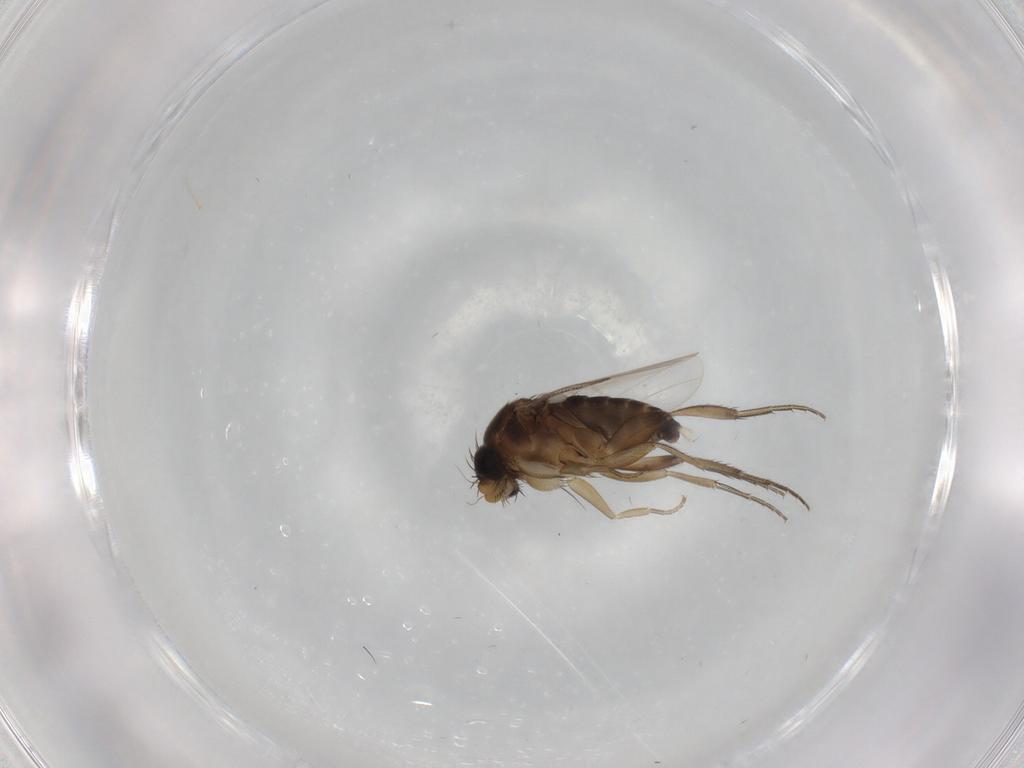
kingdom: Animalia
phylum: Arthropoda
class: Insecta
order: Diptera
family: Phoridae
